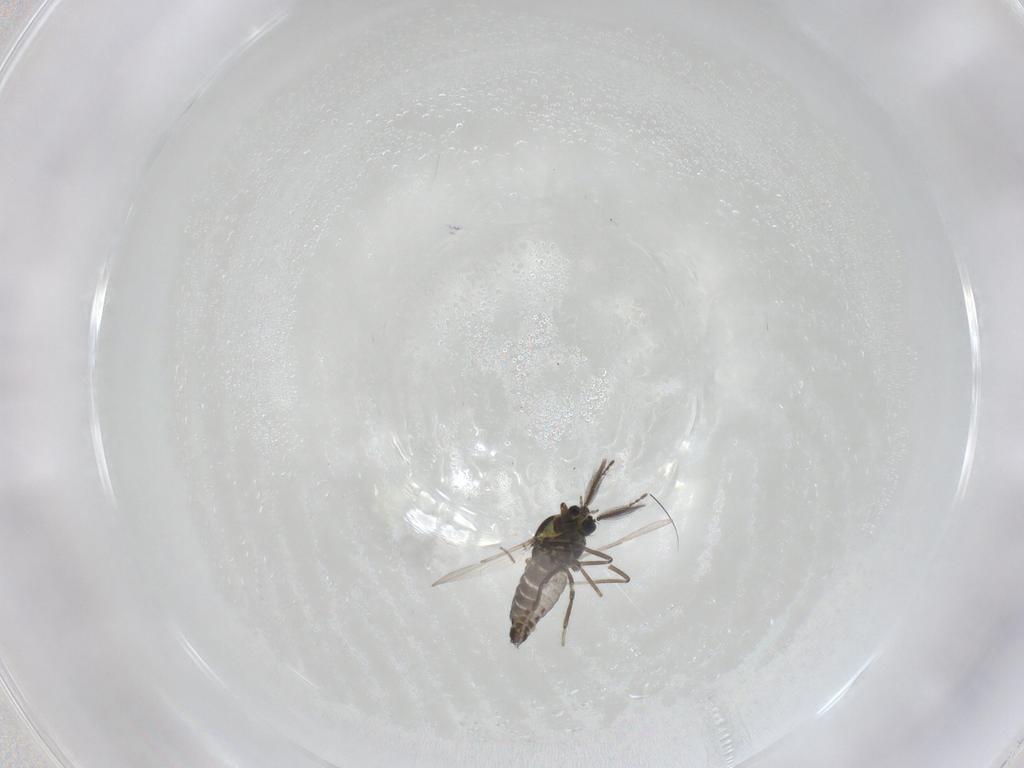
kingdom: Animalia
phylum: Arthropoda
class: Insecta
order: Diptera
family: Ceratopogonidae
